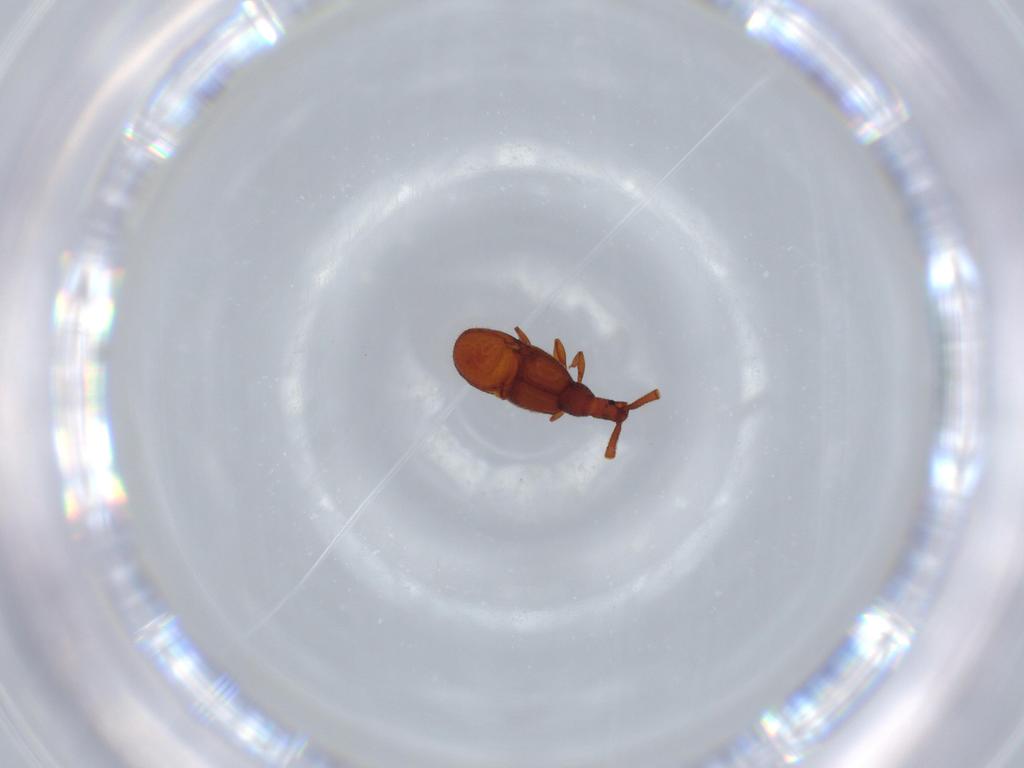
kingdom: Animalia
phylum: Arthropoda
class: Insecta
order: Coleoptera
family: Staphylinidae
